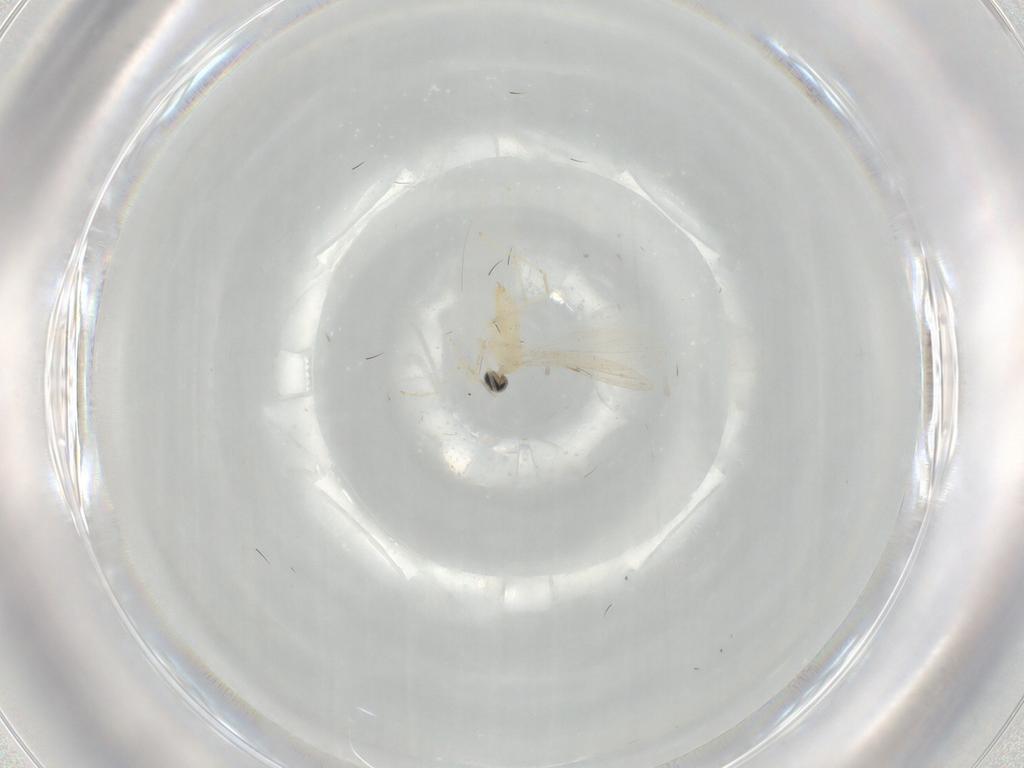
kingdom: Animalia
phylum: Arthropoda
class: Insecta
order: Diptera
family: Cecidomyiidae
